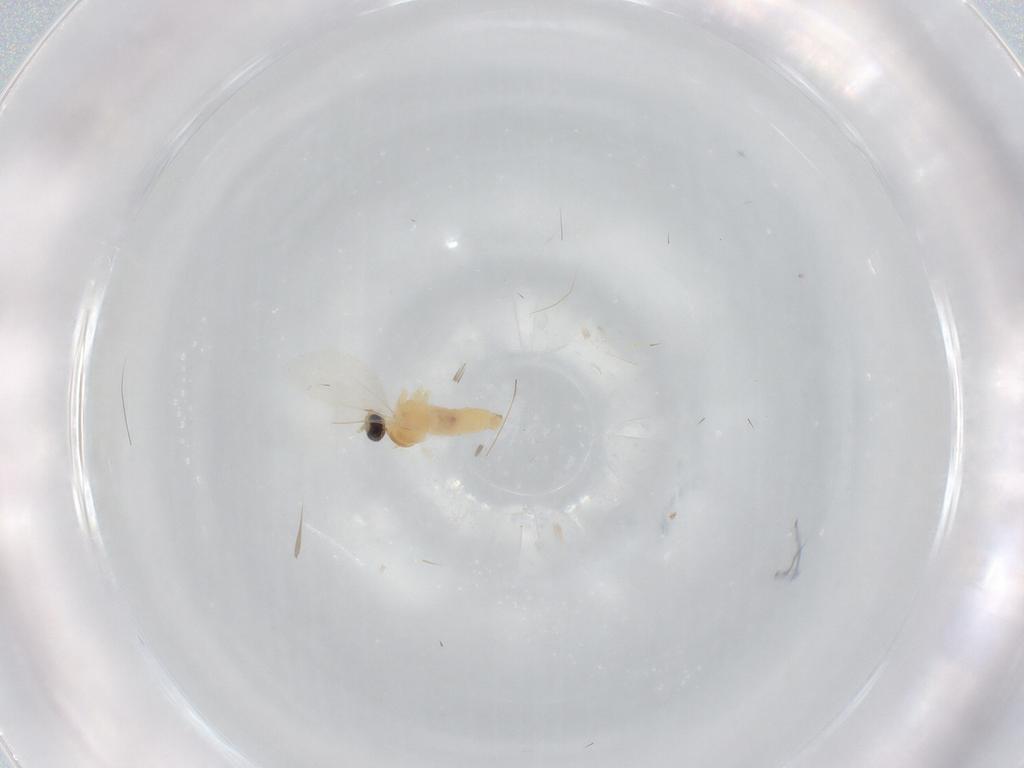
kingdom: Animalia
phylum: Arthropoda
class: Insecta
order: Diptera
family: Cecidomyiidae
